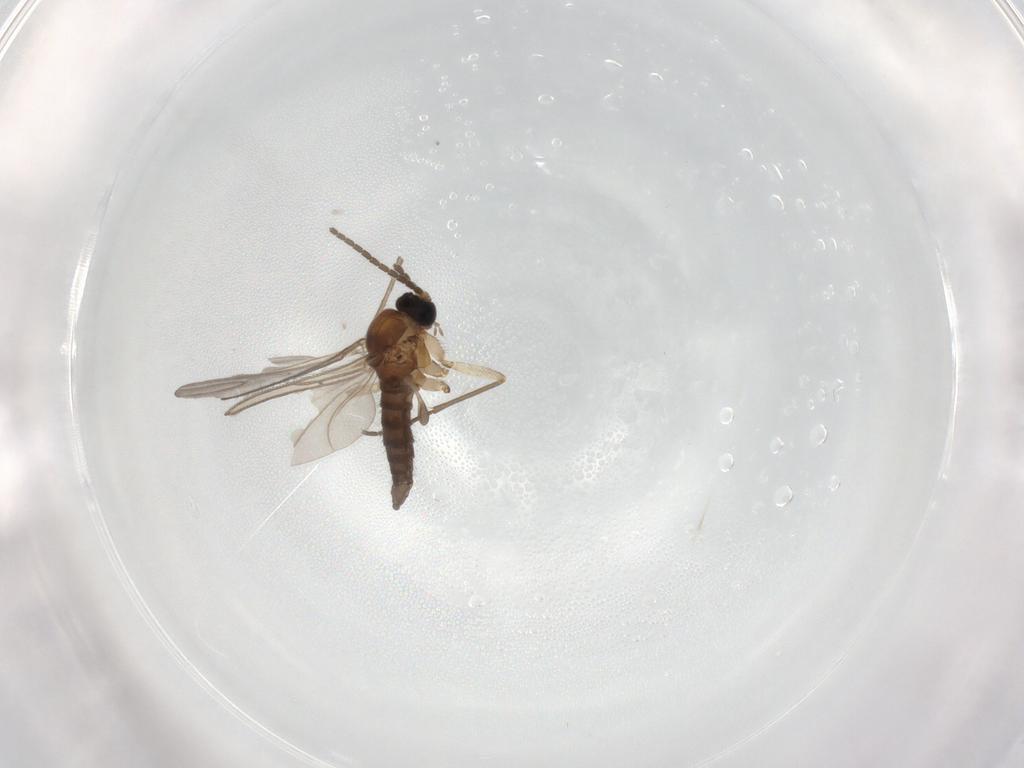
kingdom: Animalia
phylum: Arthropoda
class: Insecta
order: Diptera
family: Sciaridae
